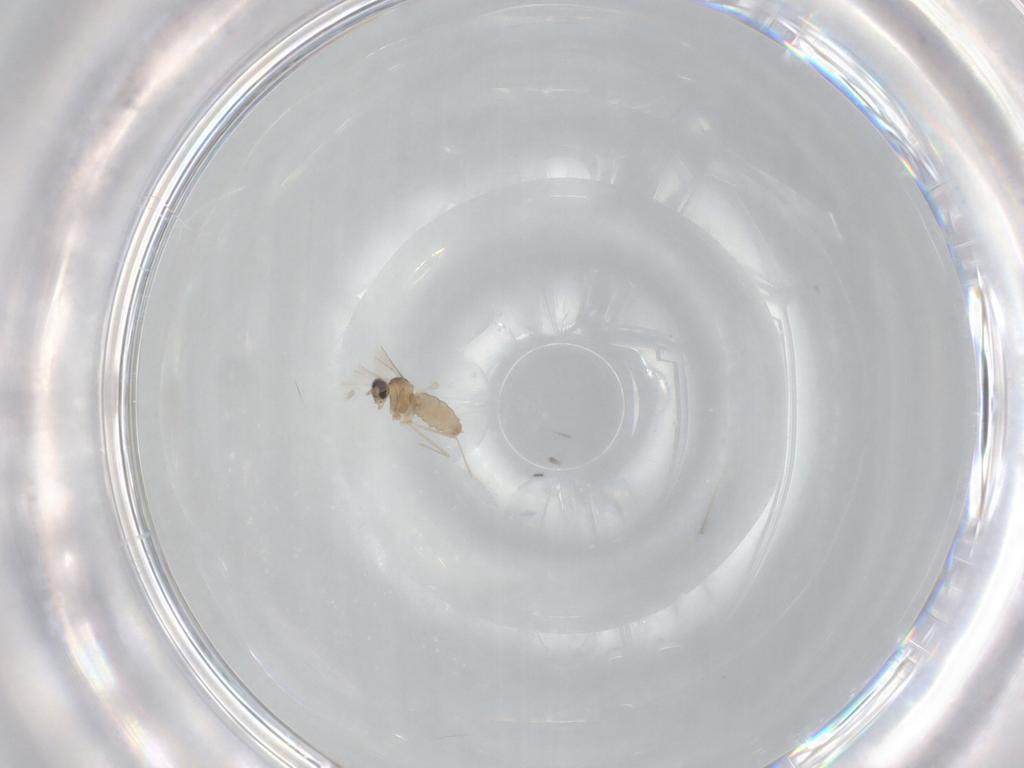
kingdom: Animalia
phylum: Arthropoda
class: Insecta
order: Diptera
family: Cecidomyiidae
